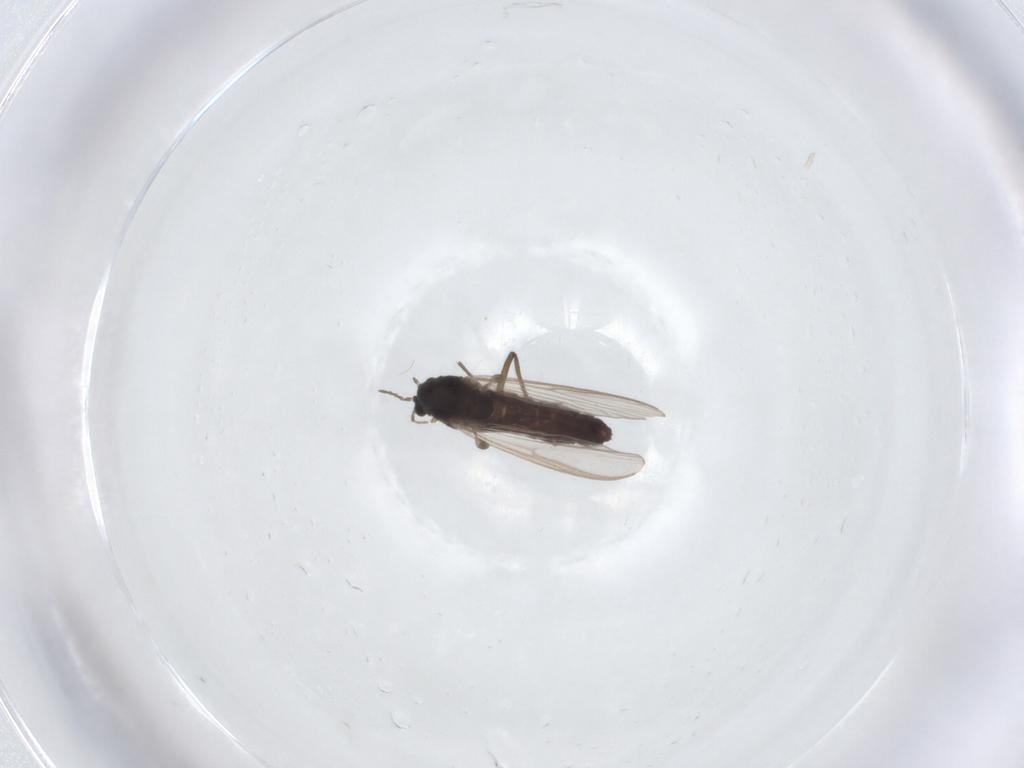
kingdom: Animalia
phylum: Arthropoda
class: Insecta
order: Diptera
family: Chironomidae
